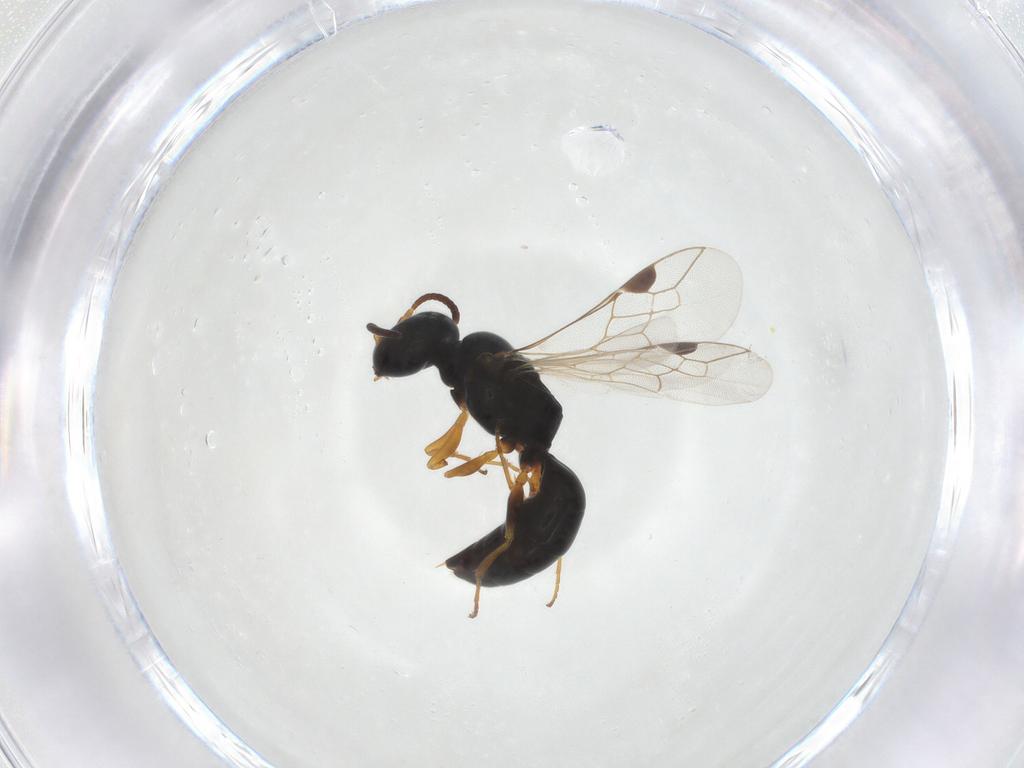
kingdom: Animalia
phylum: Arthropoda
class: Insecta
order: Hymenoptera
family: Crabronidae
